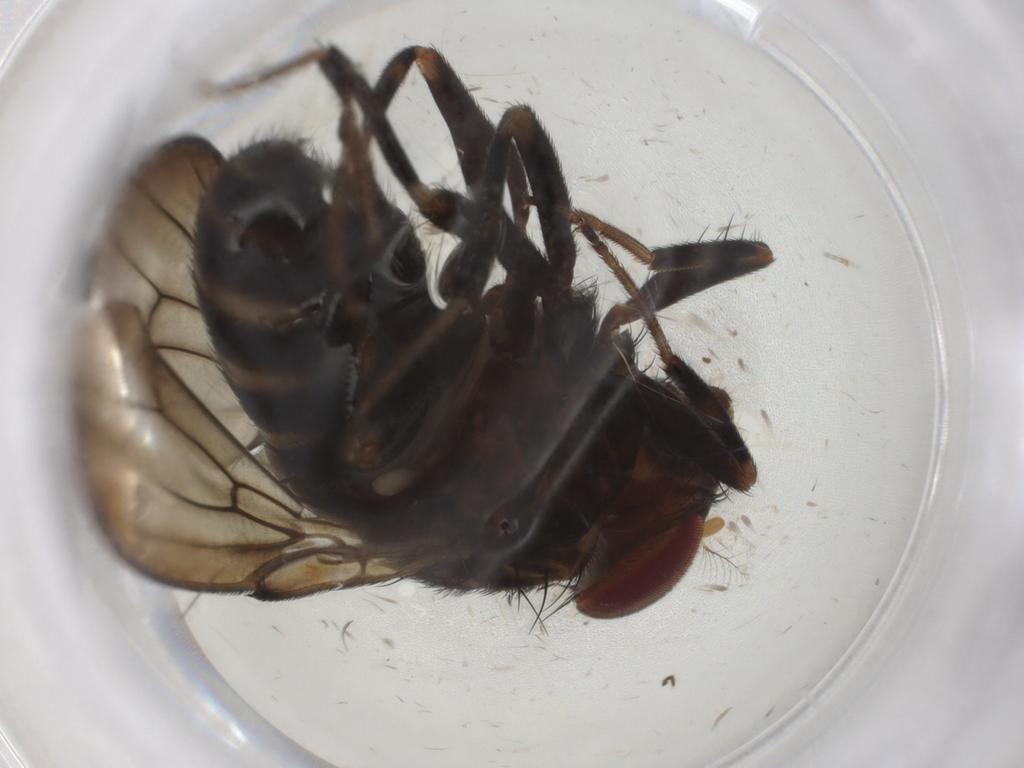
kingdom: Animalia
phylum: Arthropoda
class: Insecta
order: Diptera
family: Drosophilidae
